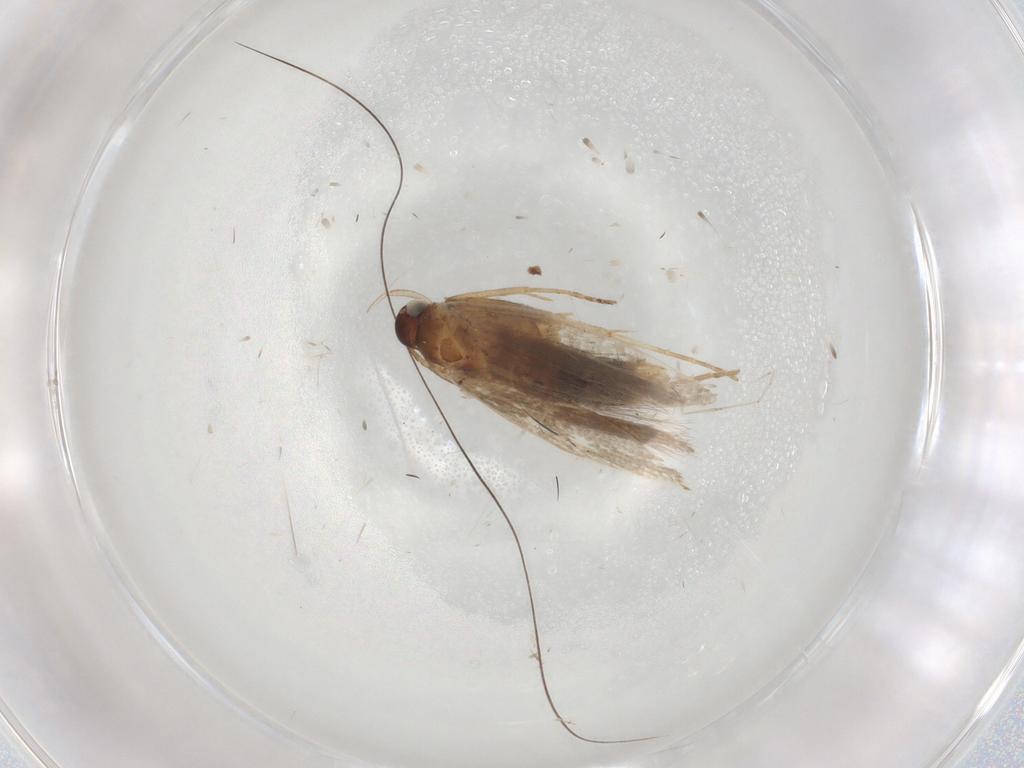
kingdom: Animalia
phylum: Arthropoda
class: Insecta
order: Lepidoptera
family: Gelechiidae
